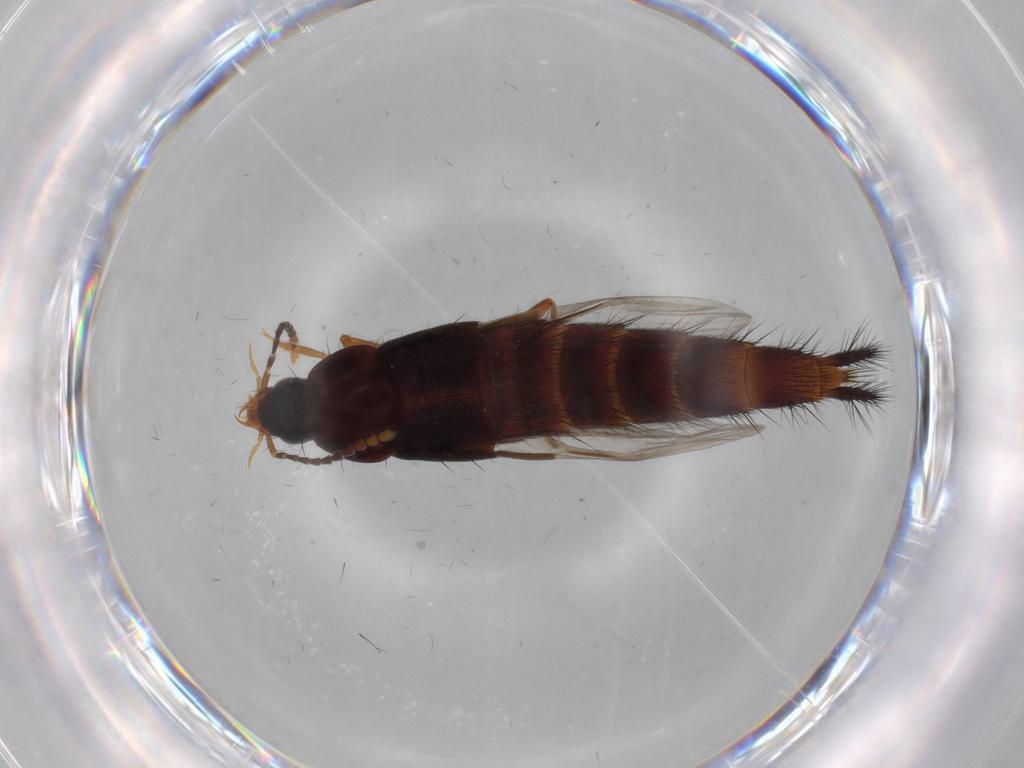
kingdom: Animalia
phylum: Arthropoda
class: Insecta
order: Coleoptera
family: Staphylinidae
